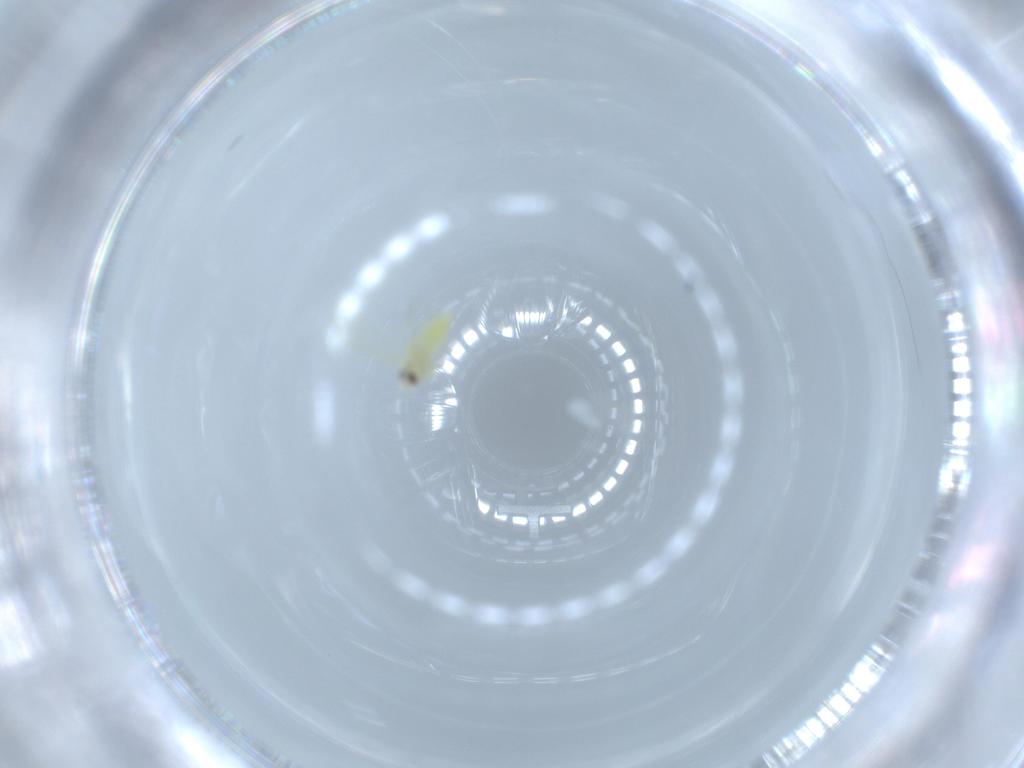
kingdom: Animalia
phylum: Arthropoda
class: Insecta
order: Hemiptera
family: Aleyrodidae
